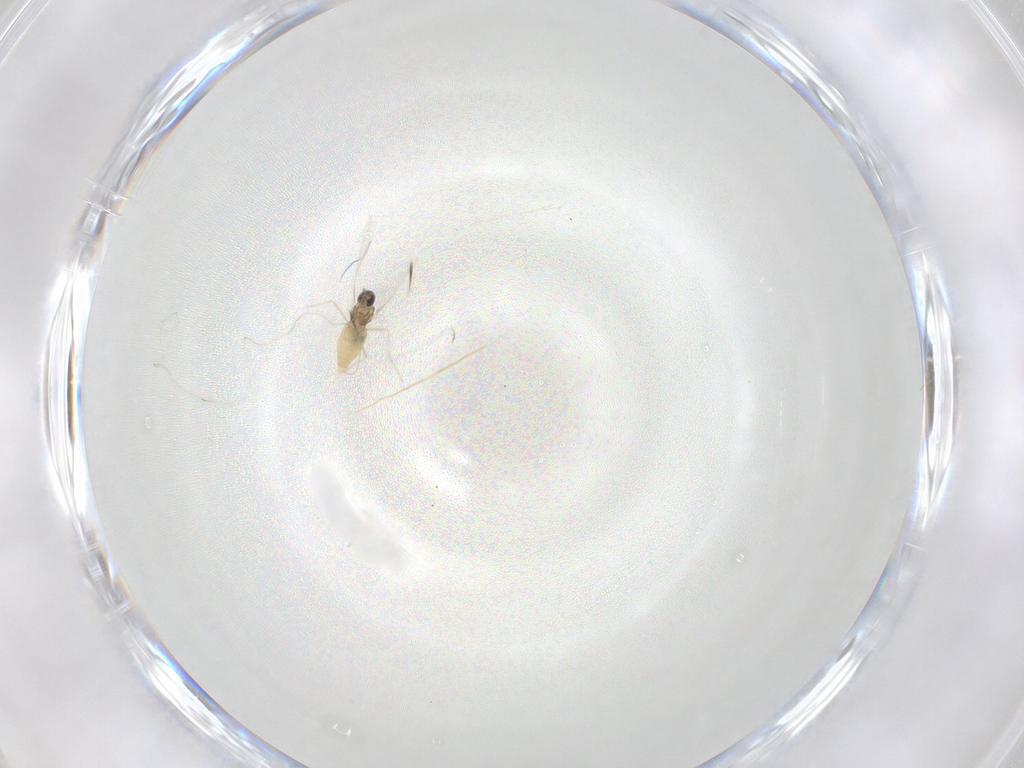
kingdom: Animalia
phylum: Arthropoda
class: Insecta
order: Diptera
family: Cecidomyiidae
